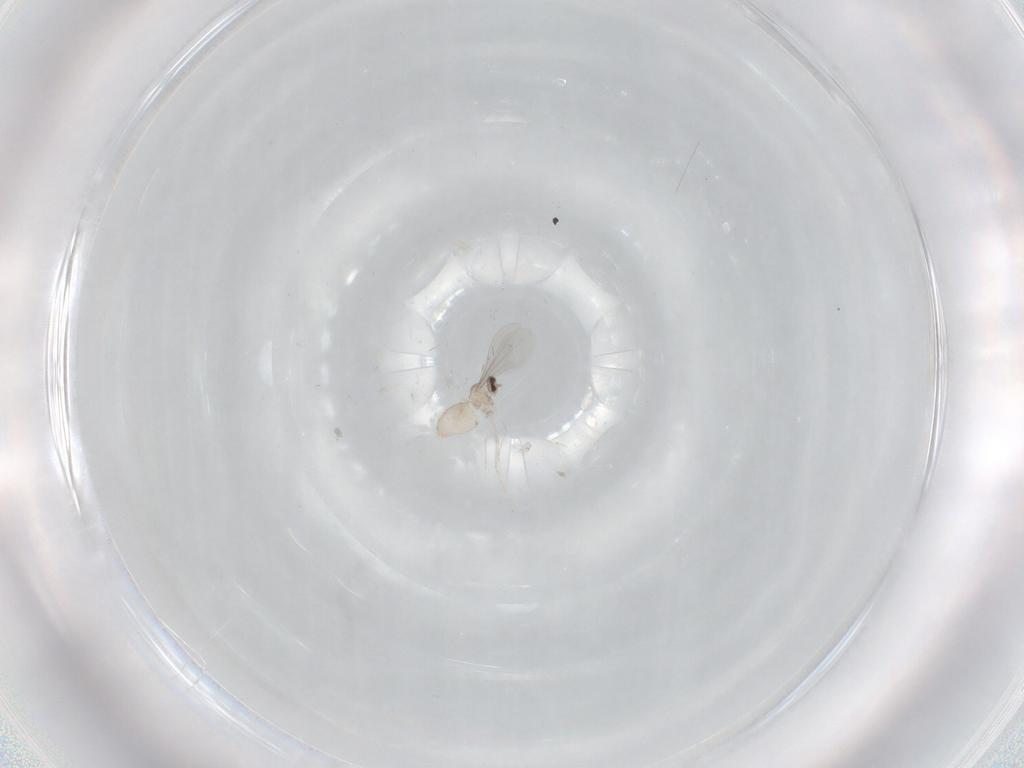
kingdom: Animalia
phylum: Arthropoda
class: Insecta
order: Diptera
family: Cecidomyiidae
